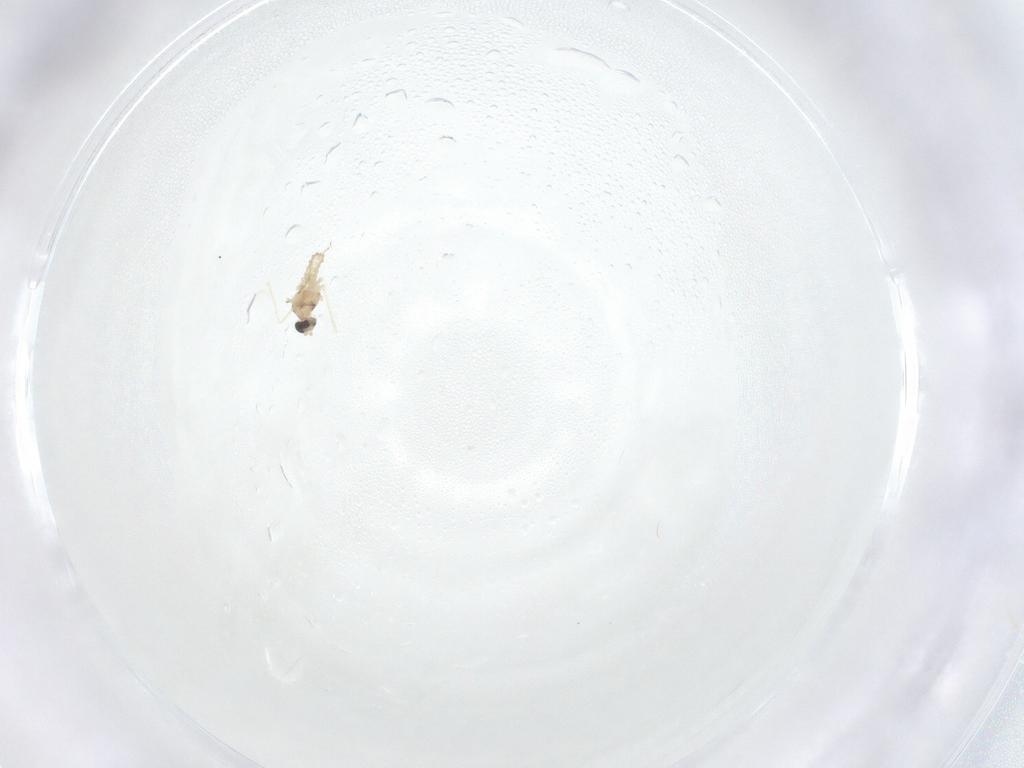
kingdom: Animalia
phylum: Arthropoda
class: Insecta
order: Diptera
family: Cecidomyiidae
